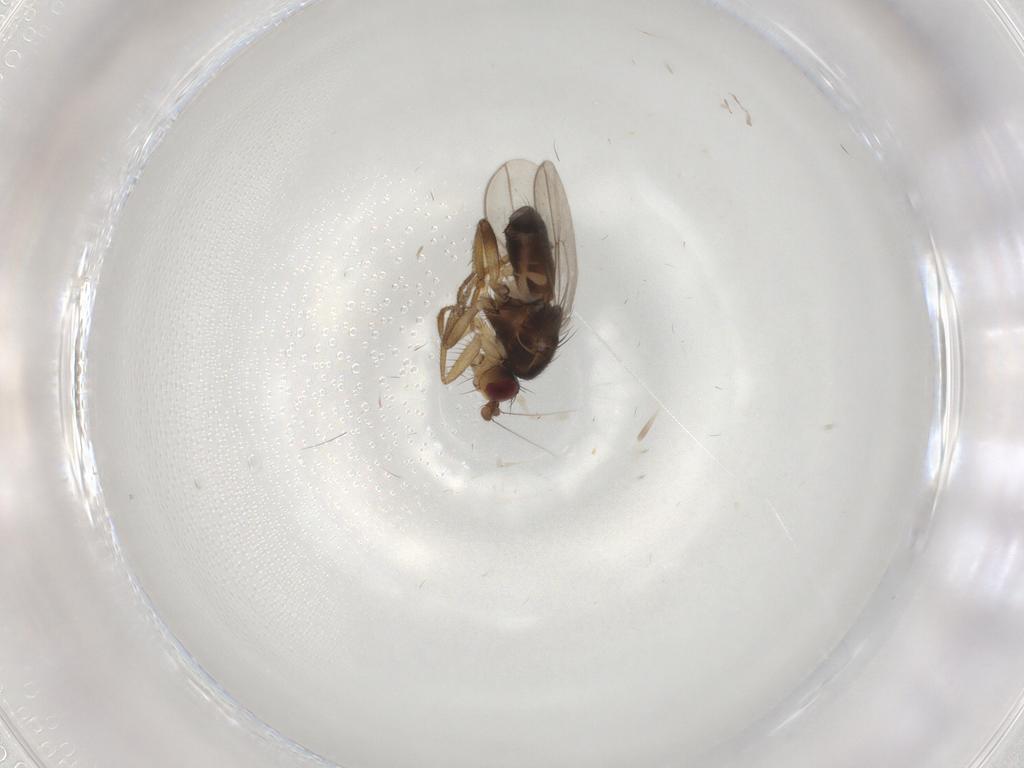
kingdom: Animalia
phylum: Arthropoda
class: Insecta
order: Diptera
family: Sphaeroceridae
